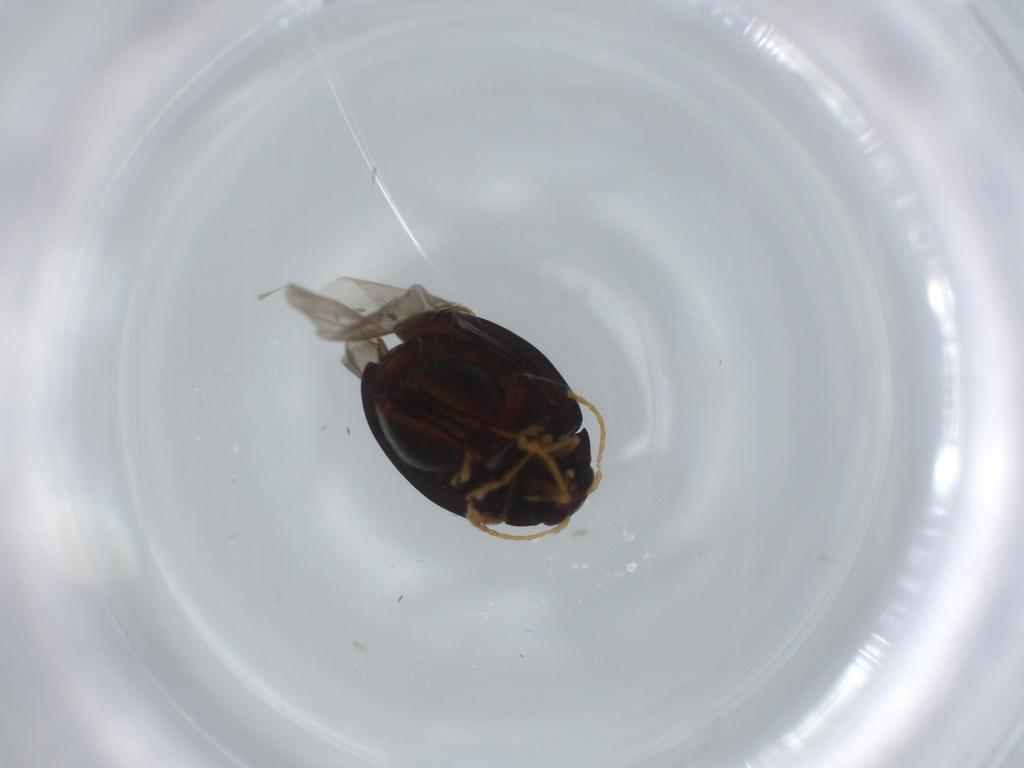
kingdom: Animalia
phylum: Arthropoda
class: Insecta
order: Coleoptera
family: Chrysomelidae
